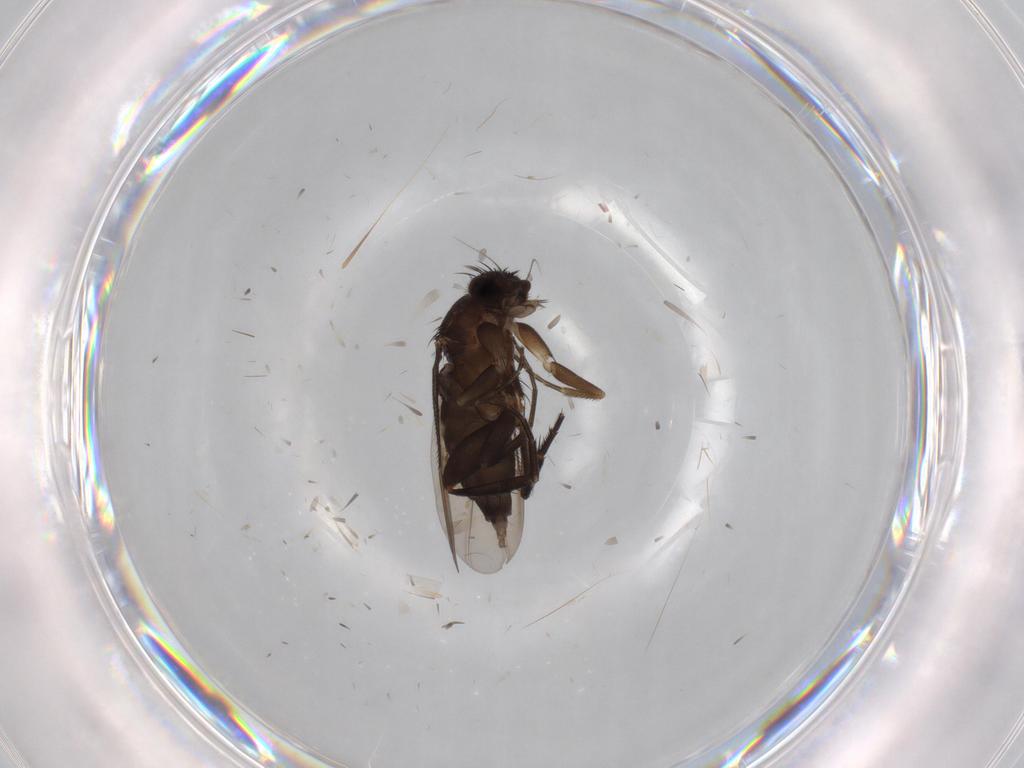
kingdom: Animalia
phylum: Arthropoda
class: Insecta
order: Diptera
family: Phoridae
